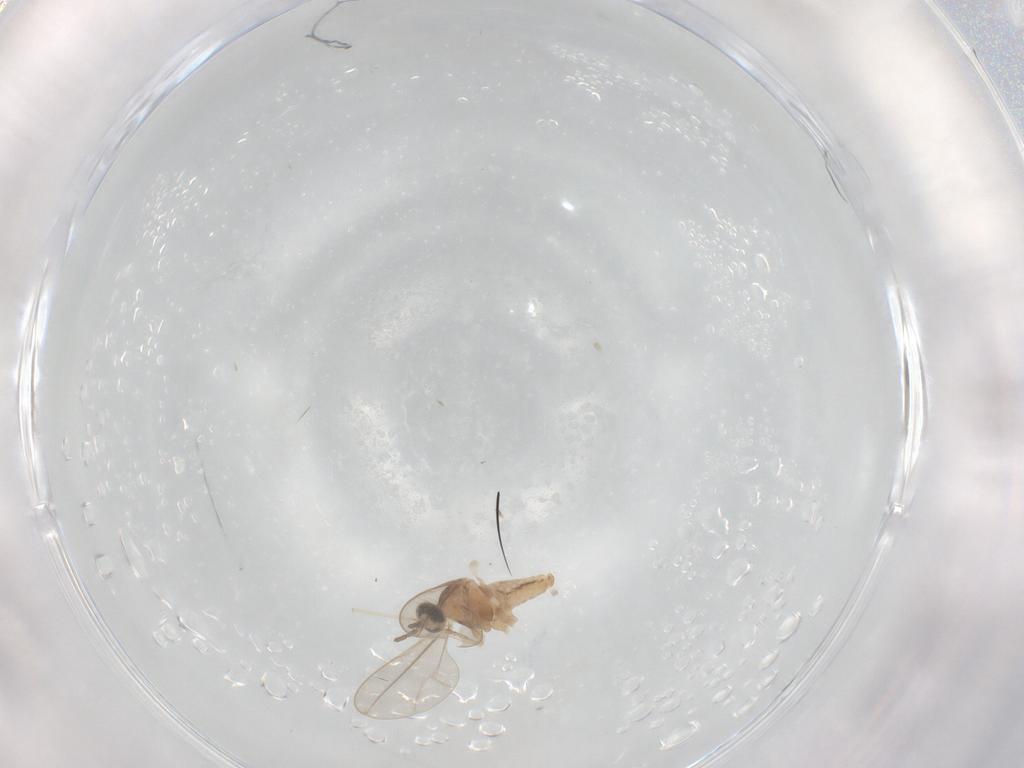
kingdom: Animalia
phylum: Arthropoda
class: Insecta
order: Diptera
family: Cecidomyiidae
